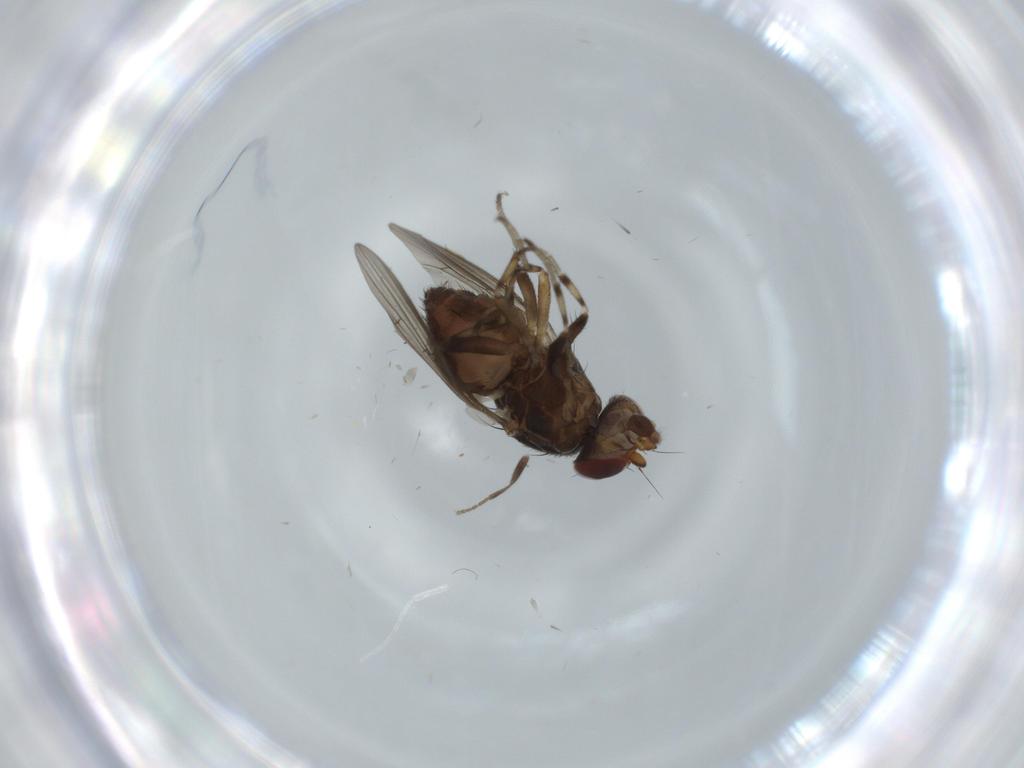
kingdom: Animalia
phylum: Arthropoda
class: Insecta
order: Diptera
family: Heleomyzidae
